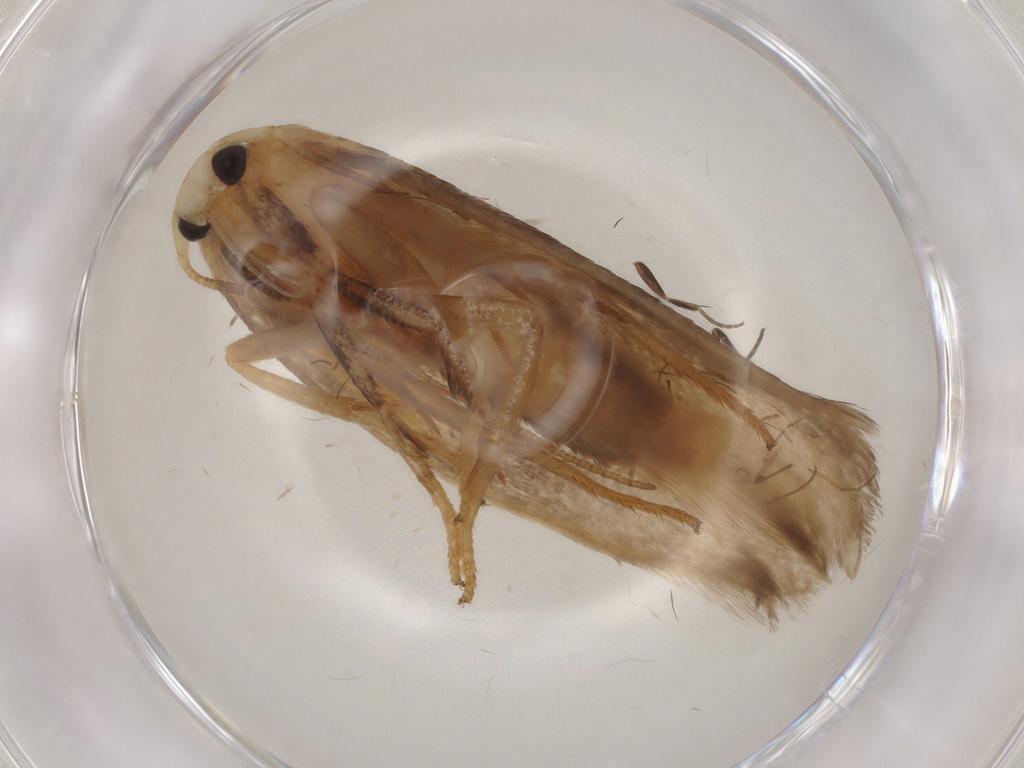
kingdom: Animalia
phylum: Arthropoda
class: Insecta
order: Lepidoptera
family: Geometridae
